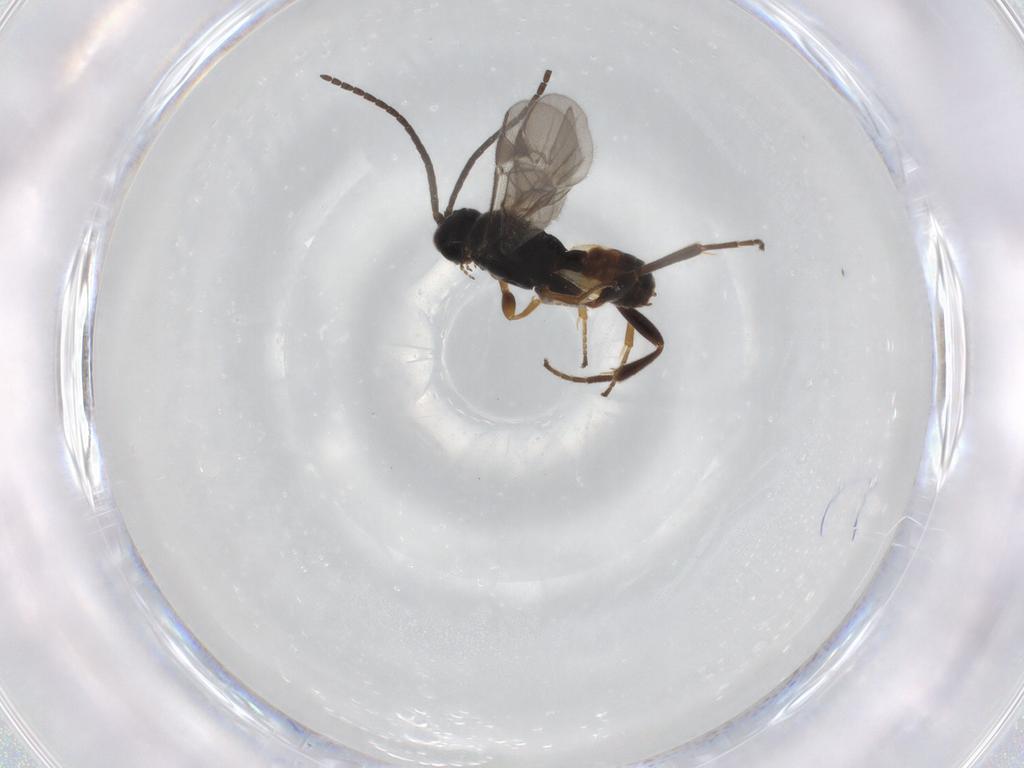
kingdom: Animalia
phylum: Arthropoda
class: Insecta
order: Hymenoptera
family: Braconidae
